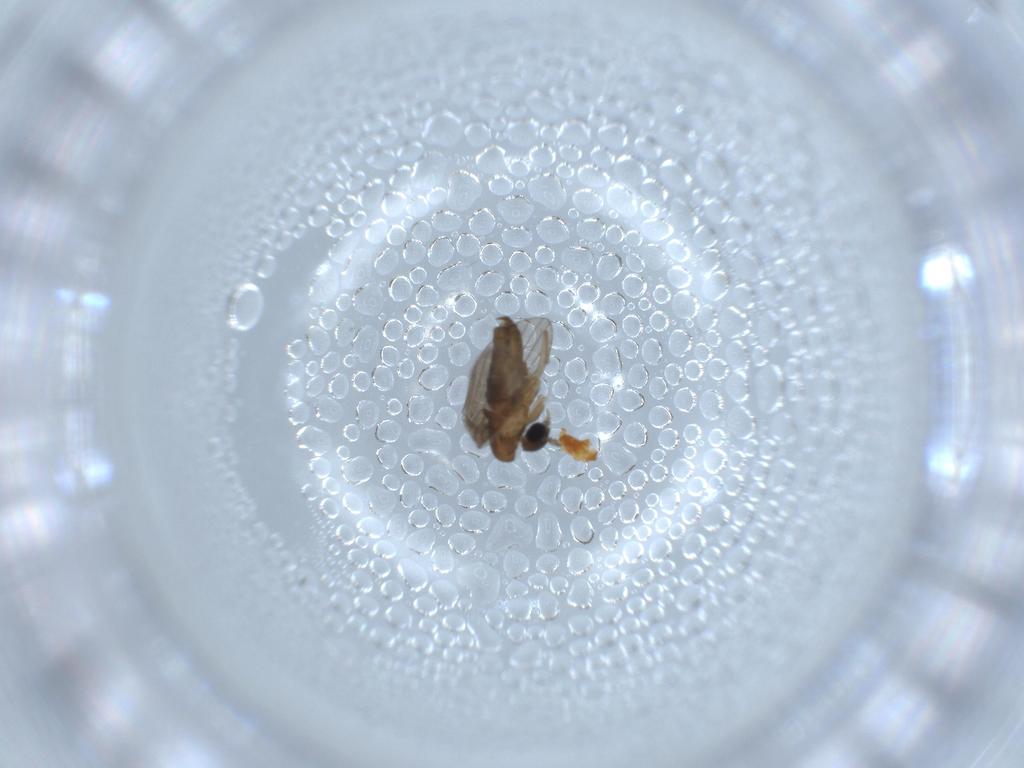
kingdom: Animalia
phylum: Arthropoda
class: Insecta
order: Diptera
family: Psychodidae
